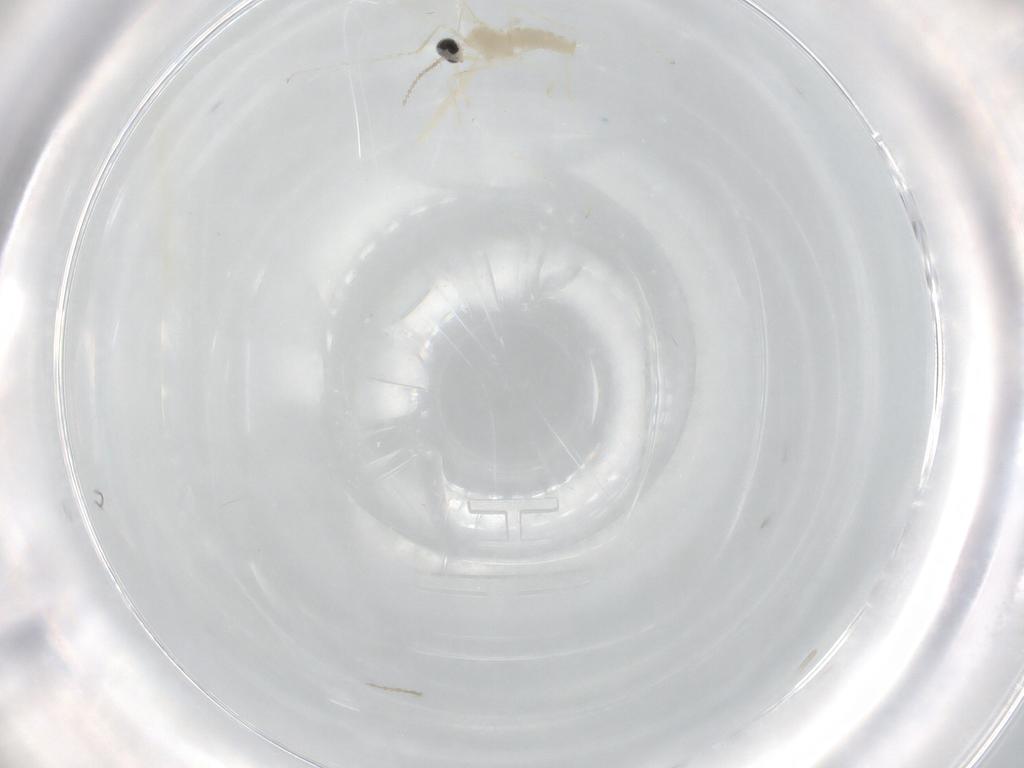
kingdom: Animalia
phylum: Arthropoda
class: Insecta
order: Diptera
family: Cecidomyiidae
